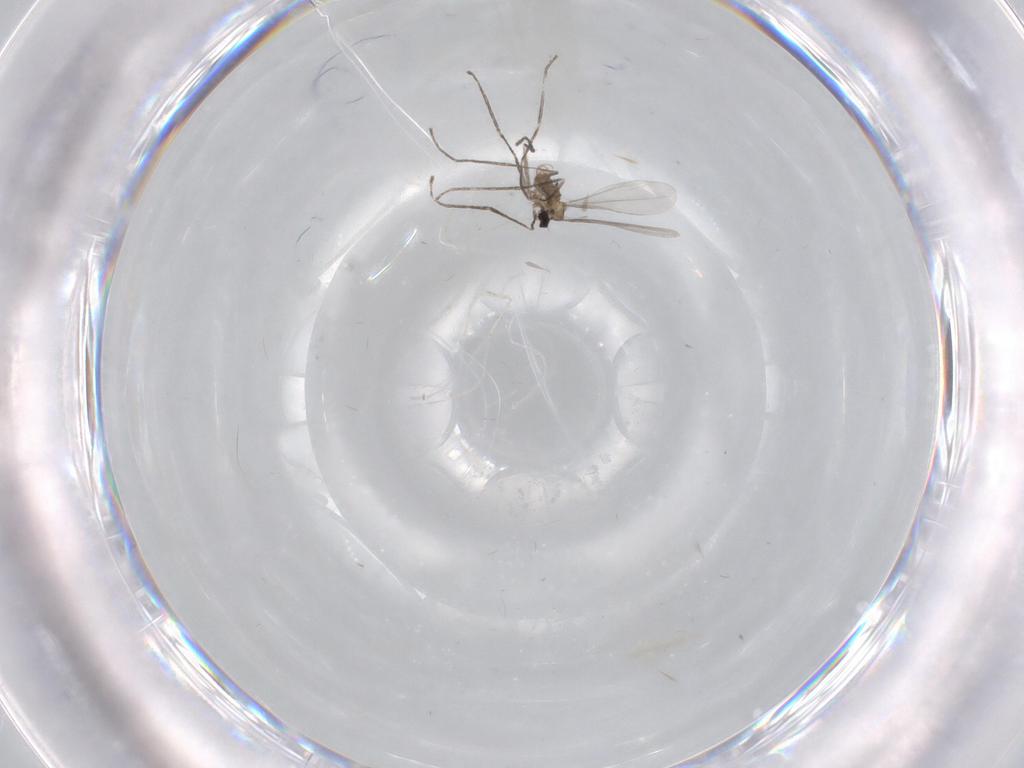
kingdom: Animalia
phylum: Arthropoda
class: Insecta
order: Diptera
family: Cecidomyiidae
